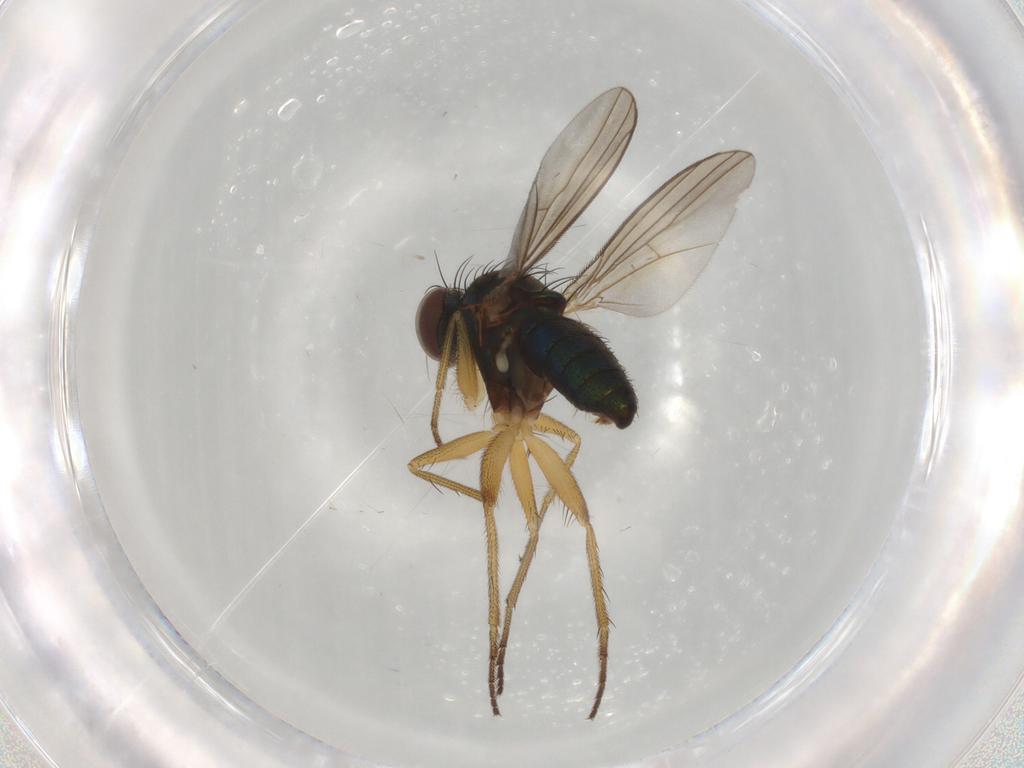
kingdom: Animalia
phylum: Arthropoda
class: Insecta
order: Diptera
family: Dolichopodidae
